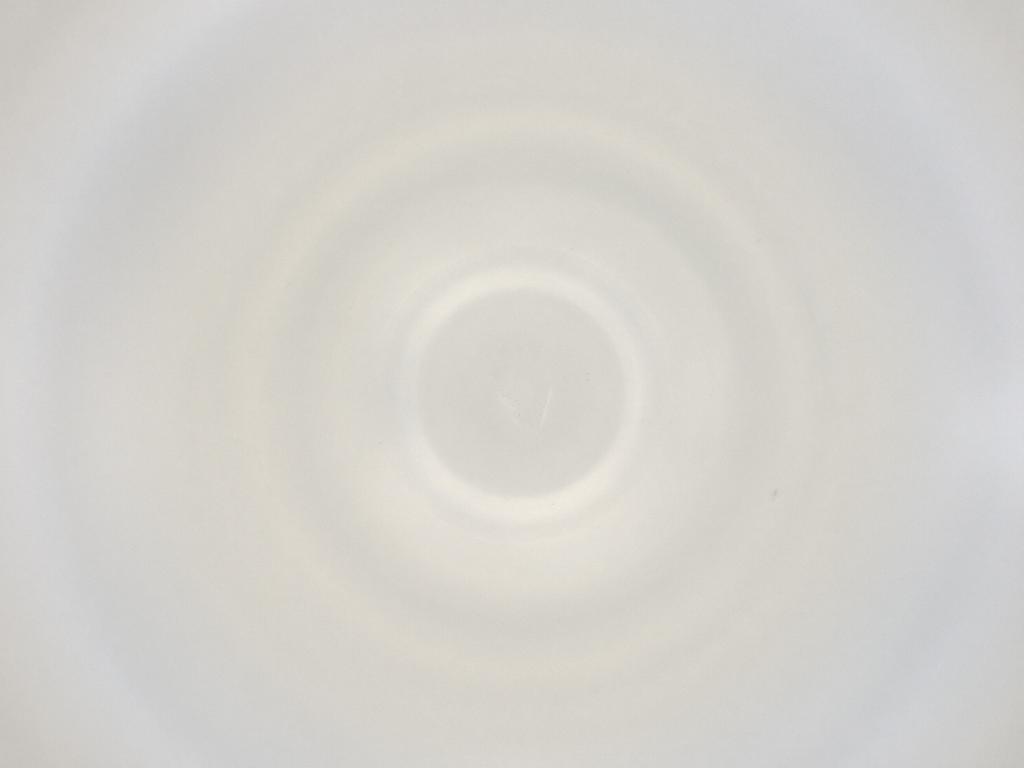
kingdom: Animalia
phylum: Arthropoda
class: Insecta
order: Diptera
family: Cecidomyiidae
